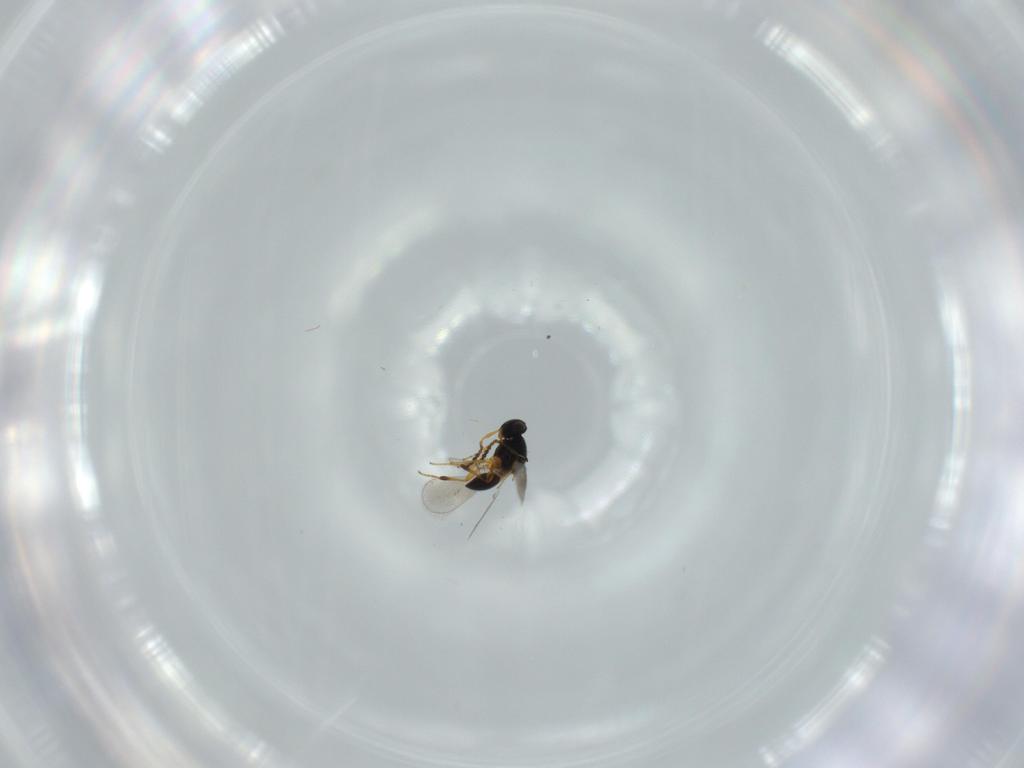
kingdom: Animalia
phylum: Arthropoda
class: Insecta
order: Hymenoptera
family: Platygastridae
